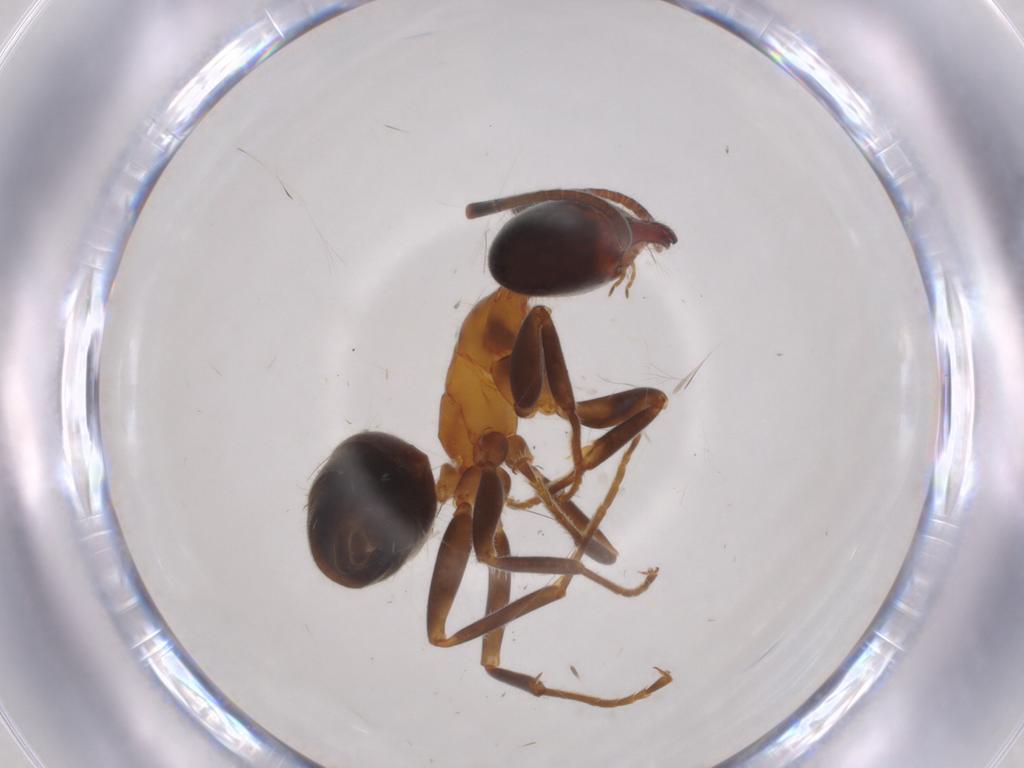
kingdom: Animalia
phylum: Arthropoda
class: Insecta
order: Hymenoptera
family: Formicidae
